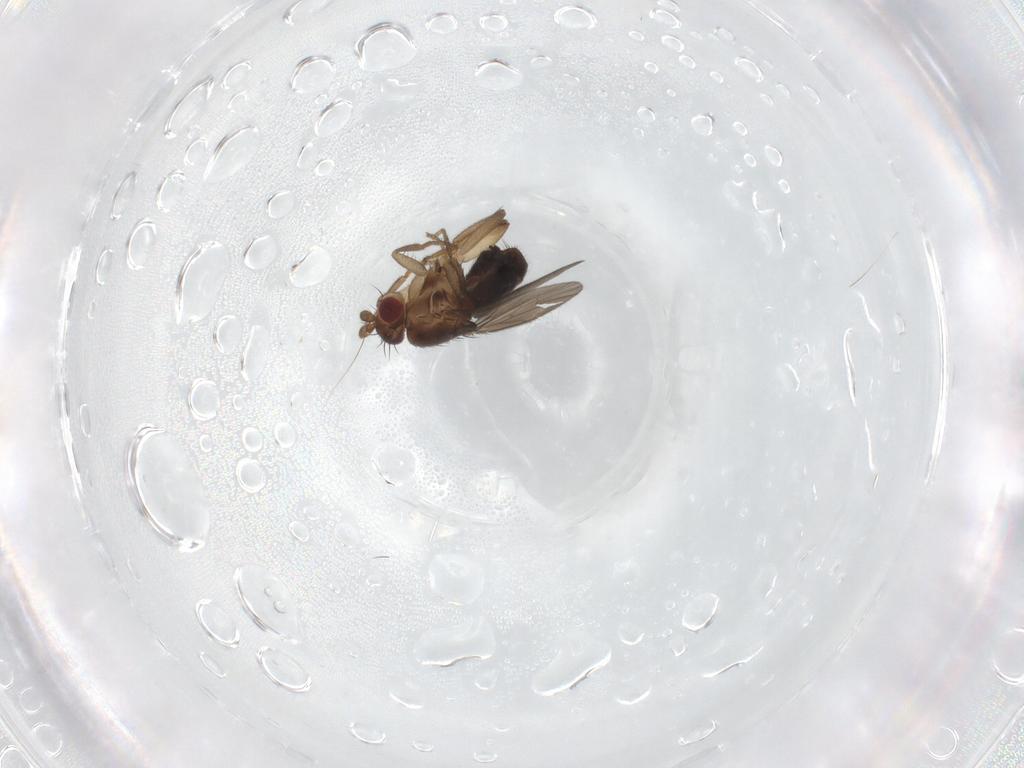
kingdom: Animalia
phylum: Arthropoda
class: Insecta
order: Diptera
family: Sphaeroceridae
